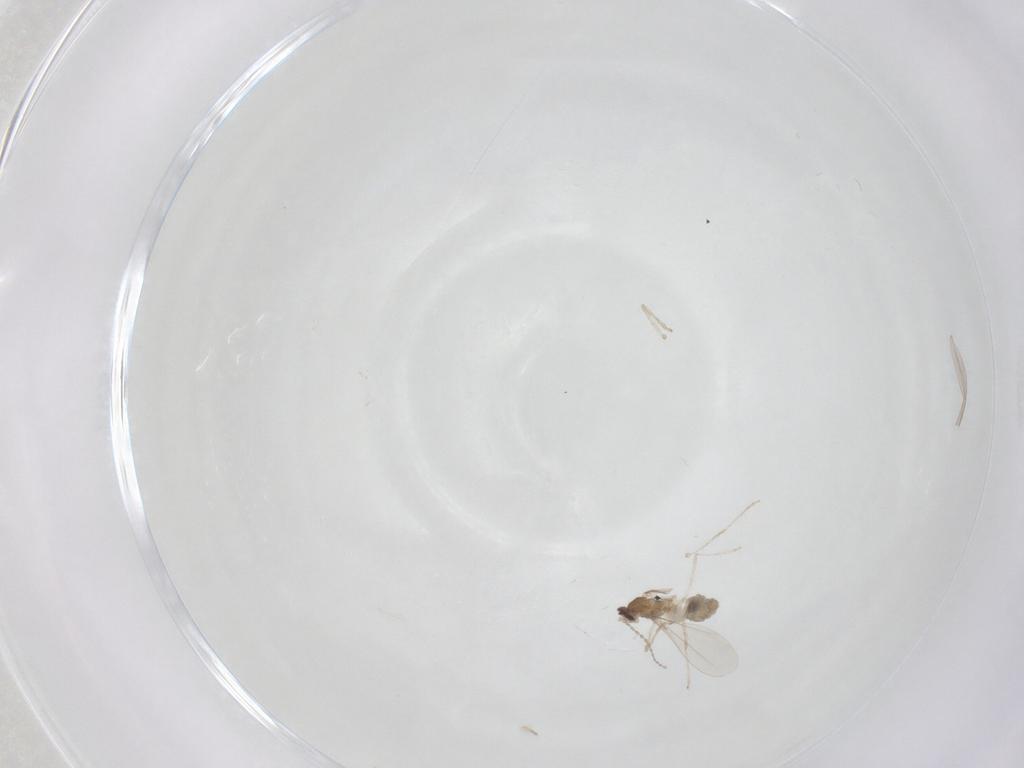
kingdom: Animalia
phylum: Arthropoda
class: Insecta
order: Diptera
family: Cecidomyiidae
